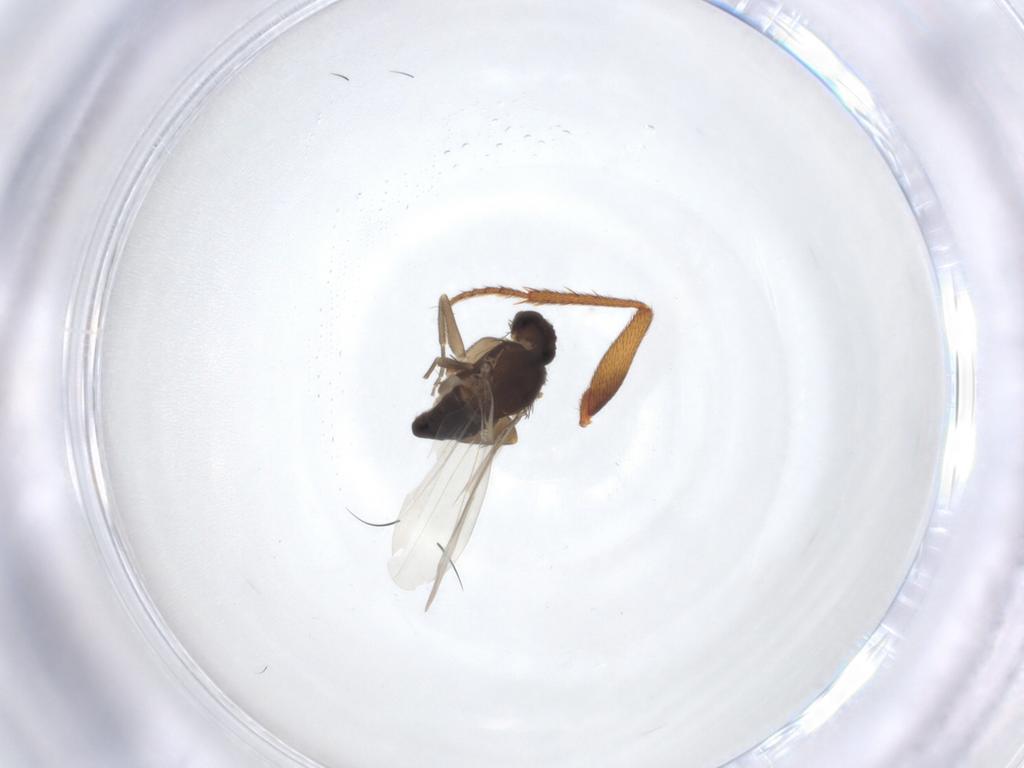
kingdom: Animalia
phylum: Arthropoda
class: Insecta
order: Diptera
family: Phoridae
